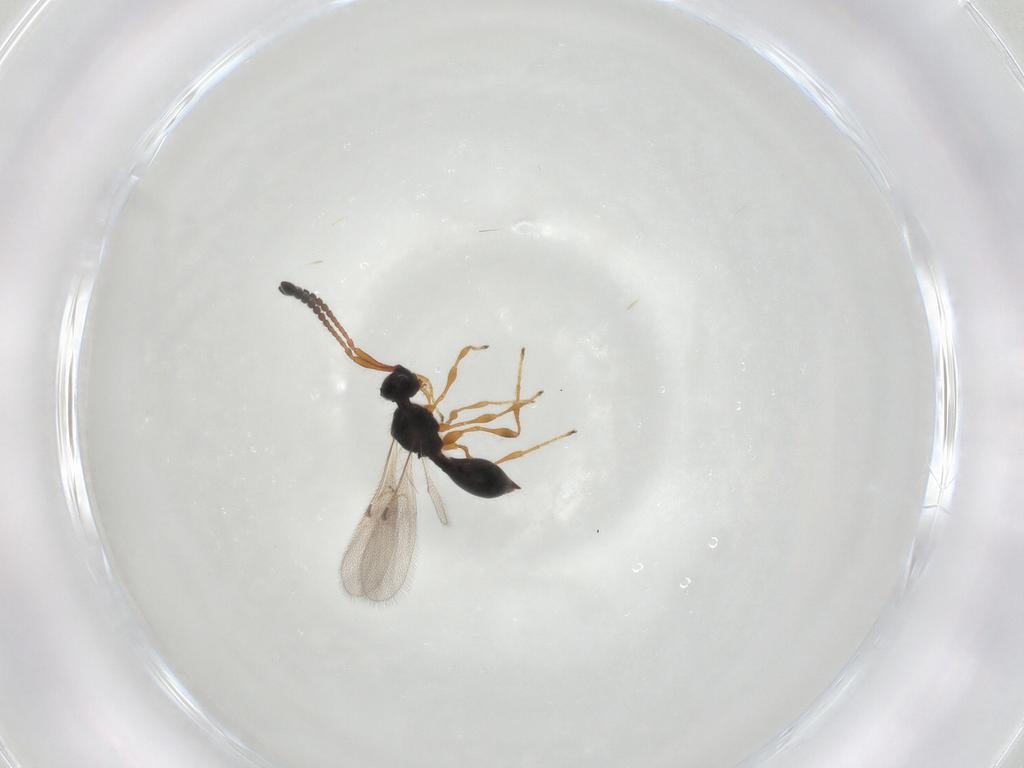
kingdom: Animalia
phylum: Arthropoda
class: Insecta
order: Hymenoptera
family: Diapriidae
